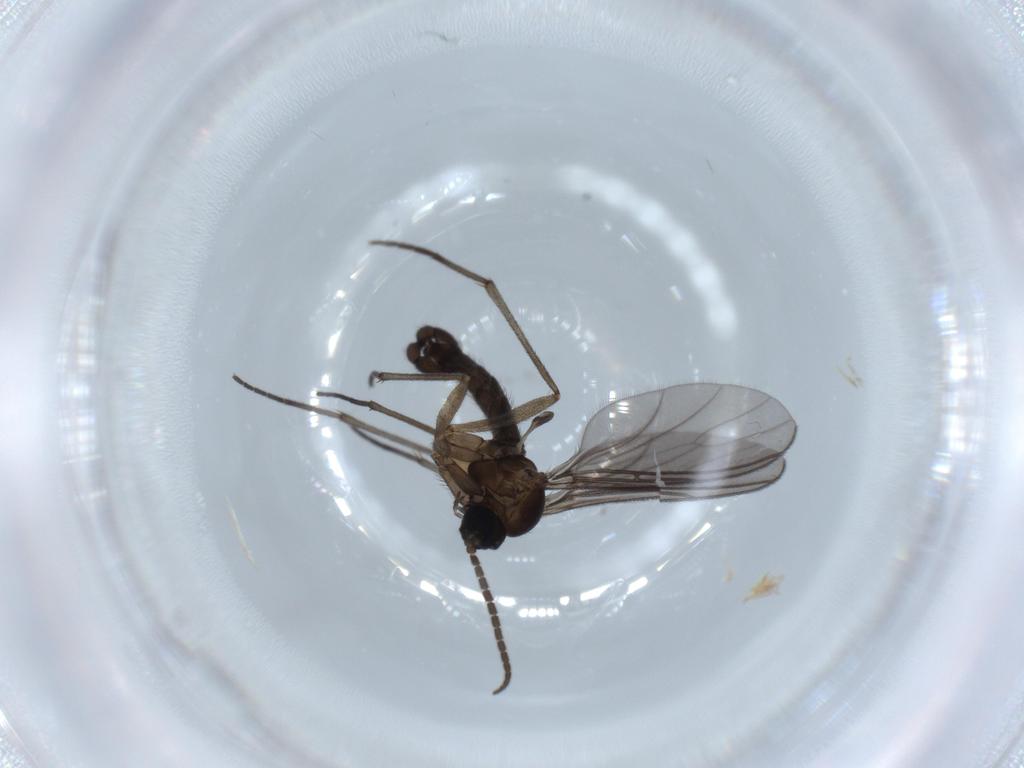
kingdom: Animalia
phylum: Arthropoda
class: Insecta
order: Diptera
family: Sciaridae
